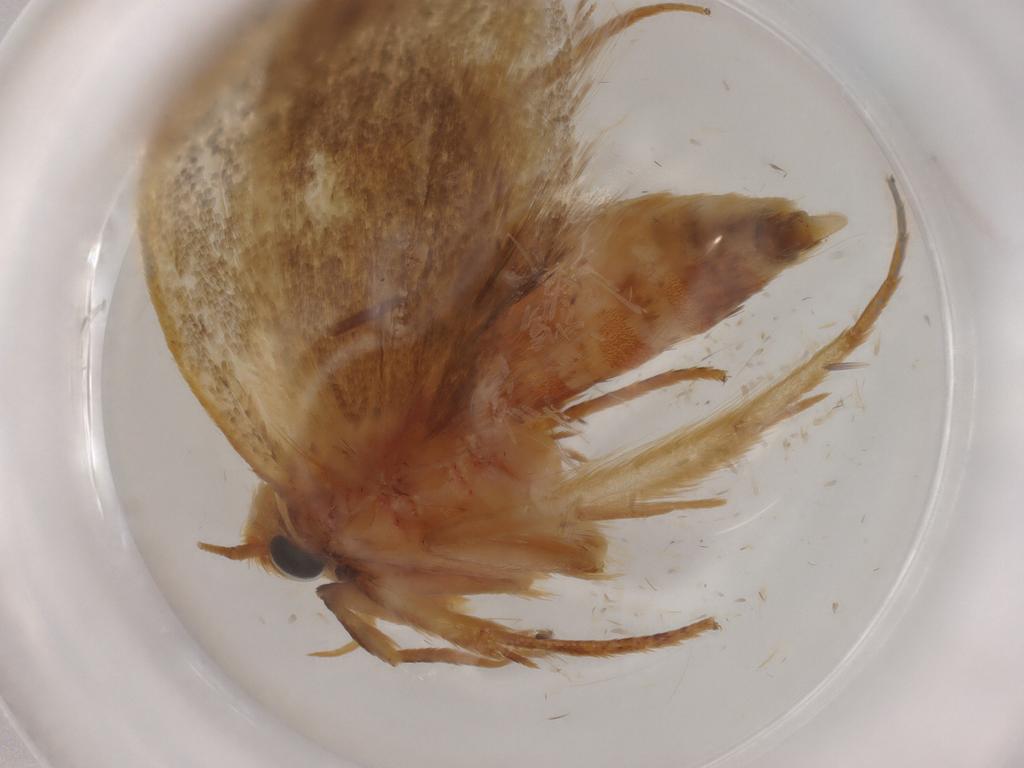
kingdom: Animalia
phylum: Arthropoda
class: Insecta
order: Lepidoptera
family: Oecophoridae
